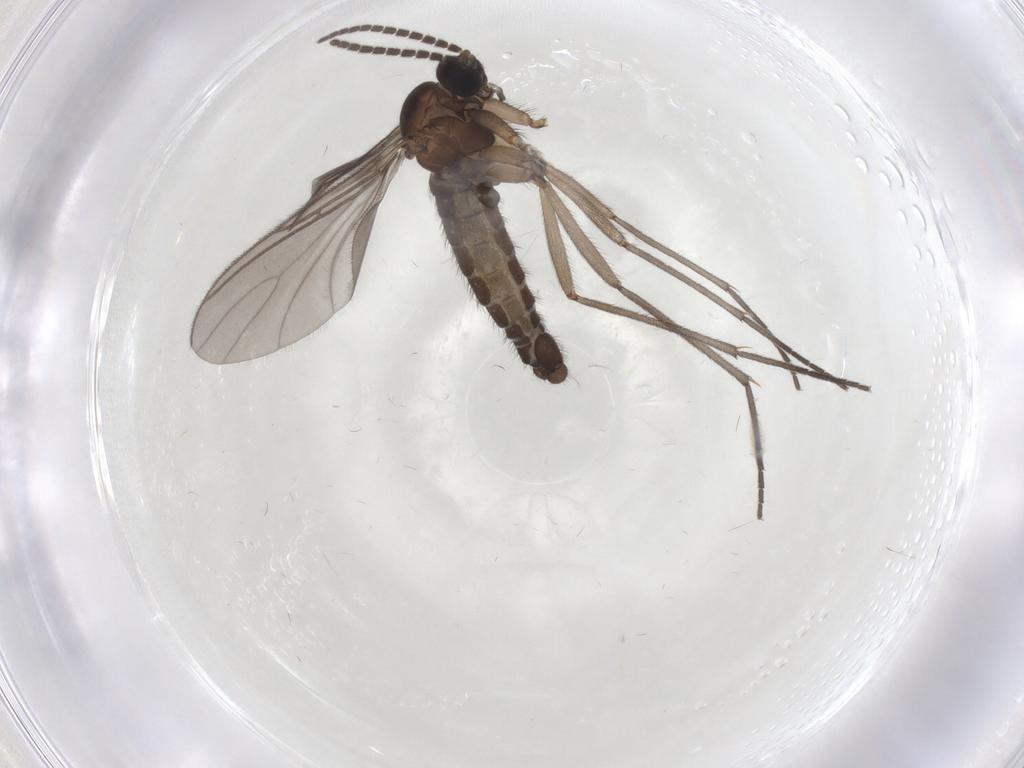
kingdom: Animalia
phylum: Arthropoda
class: Insecta
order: Diptera
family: Sciaridae
